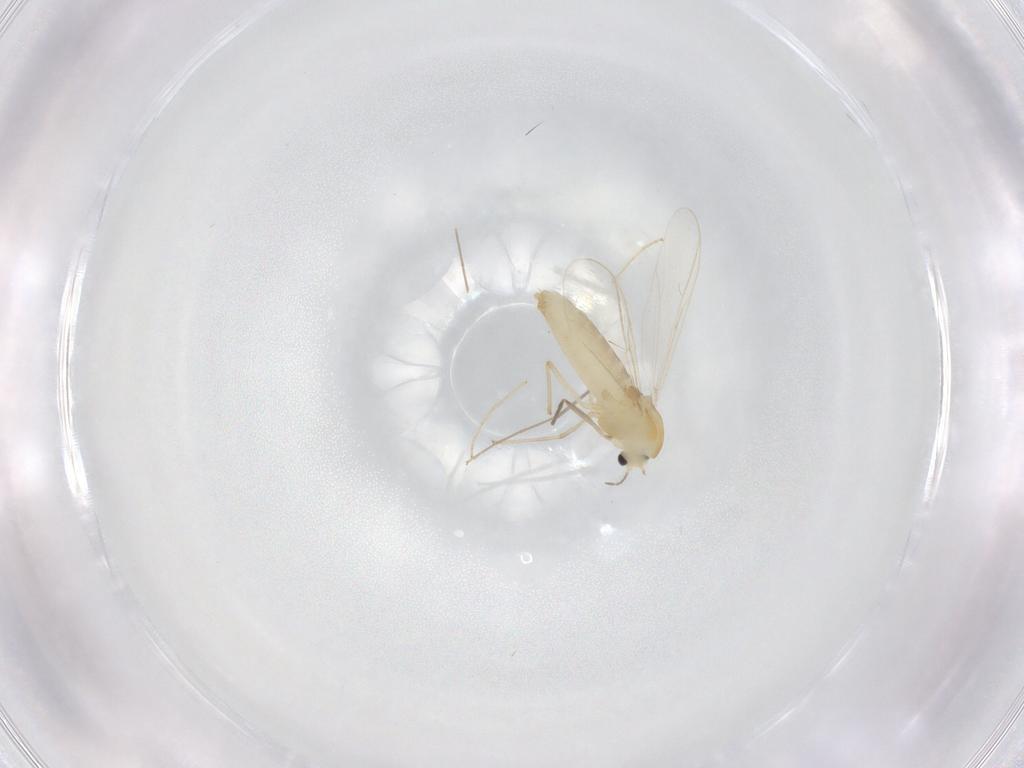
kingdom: Animalia
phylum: Arthropoda
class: Insecta
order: Diptera
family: Chironomidae
